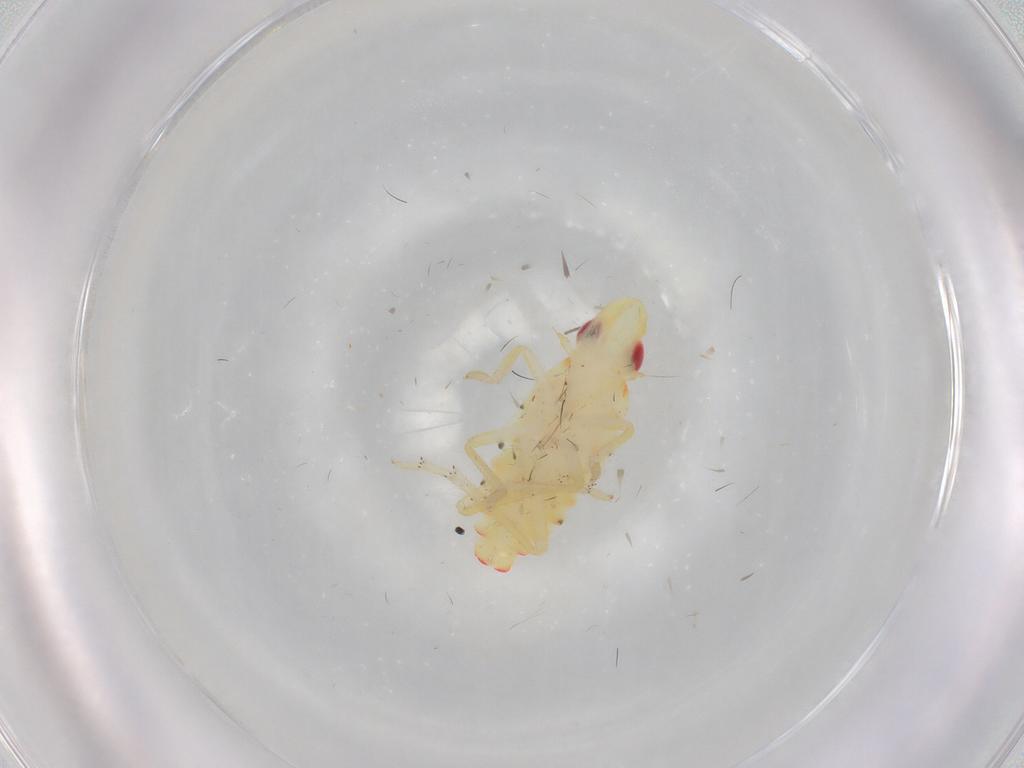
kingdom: Animalia
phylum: Arthropoda
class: Insecta
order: Hemiptera
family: Tropiduchidae
